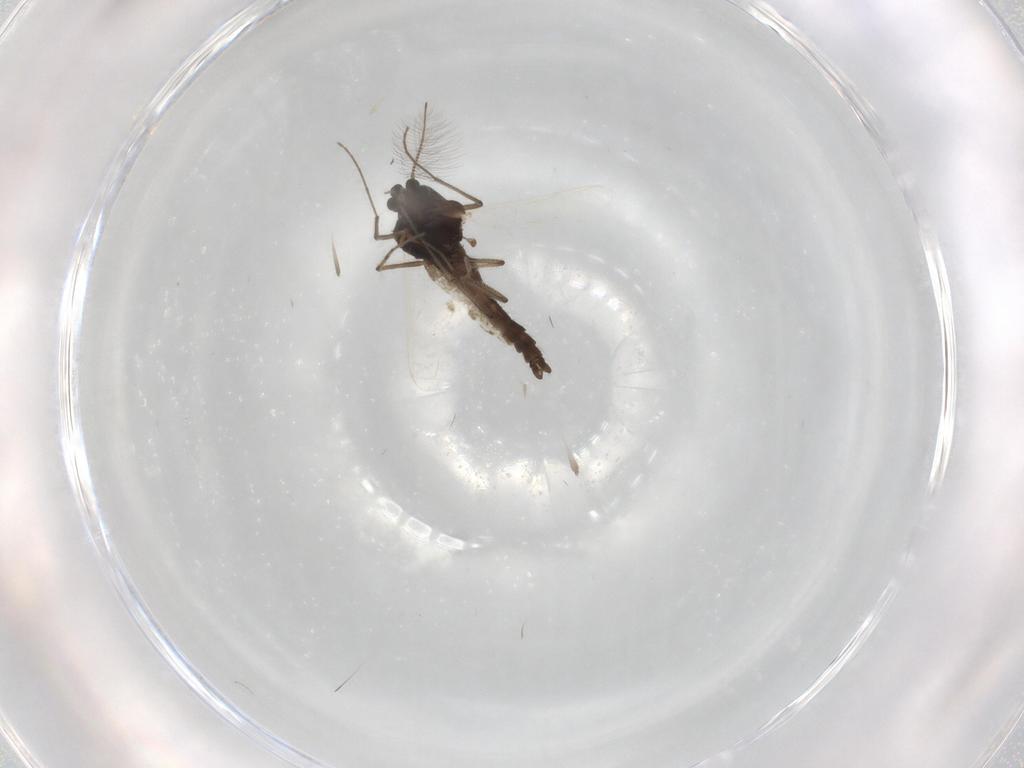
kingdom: Animalia
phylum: Arthropoda
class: Insecta
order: Diptera
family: Chironomidae
